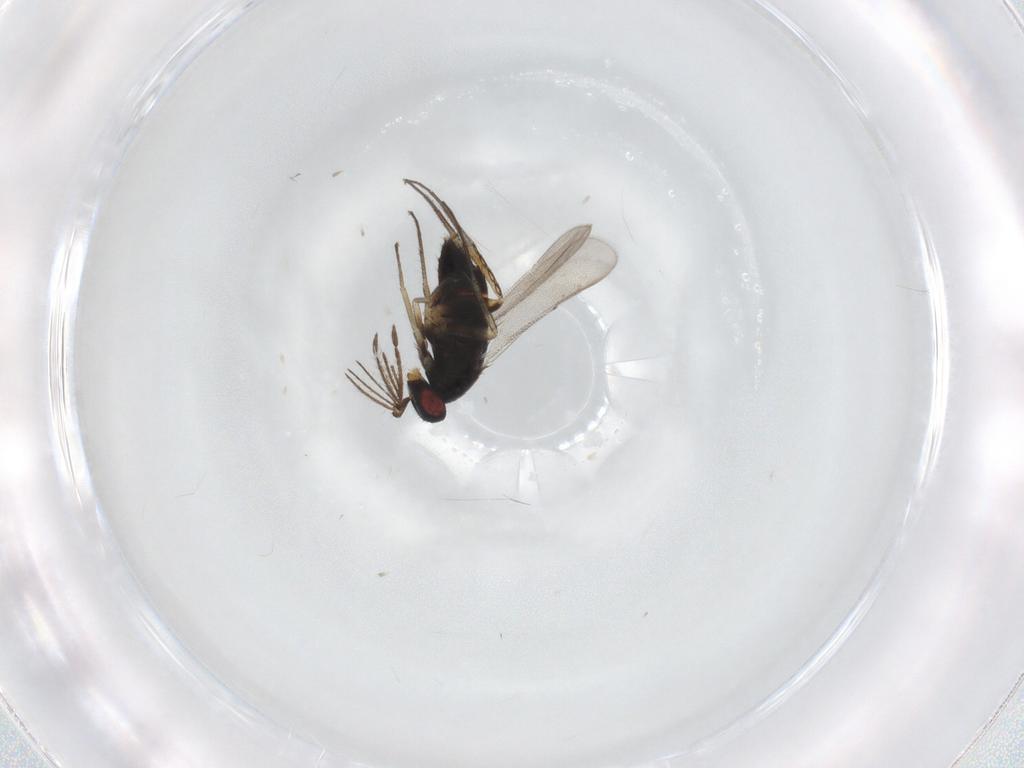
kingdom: Animalia
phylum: Arthropoda
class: Insecta
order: Hymenoptera
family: Eulophidae
